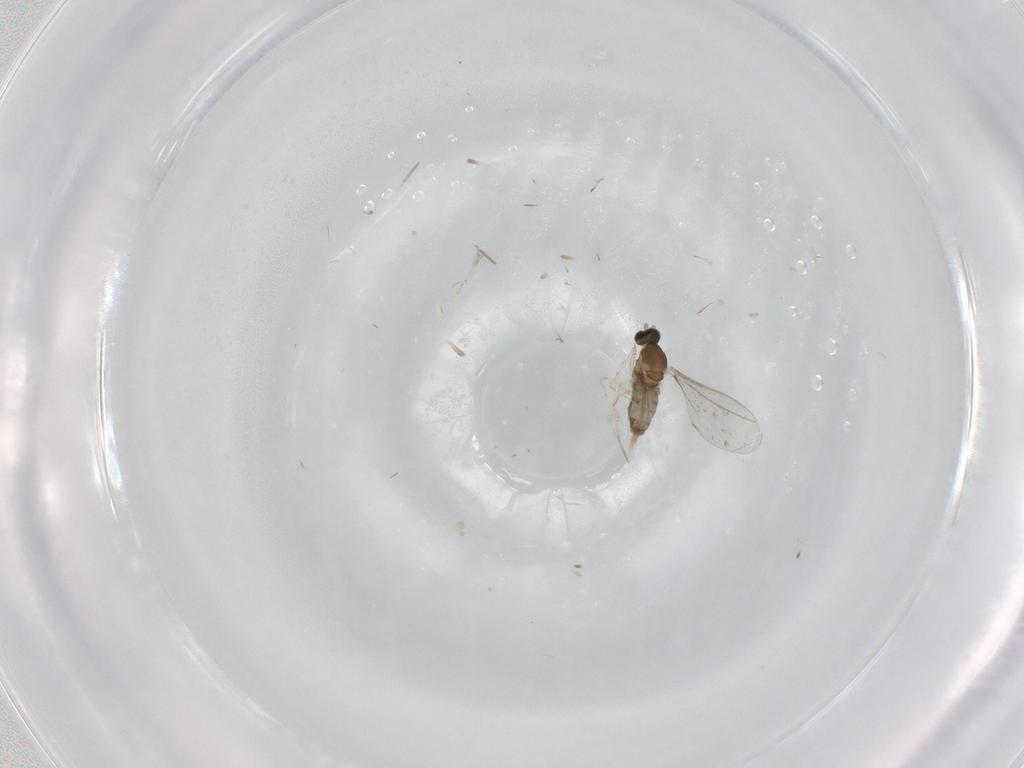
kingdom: Animalia
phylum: Arthropoda
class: Insecta
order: Diptera
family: Cecidomyiidae
